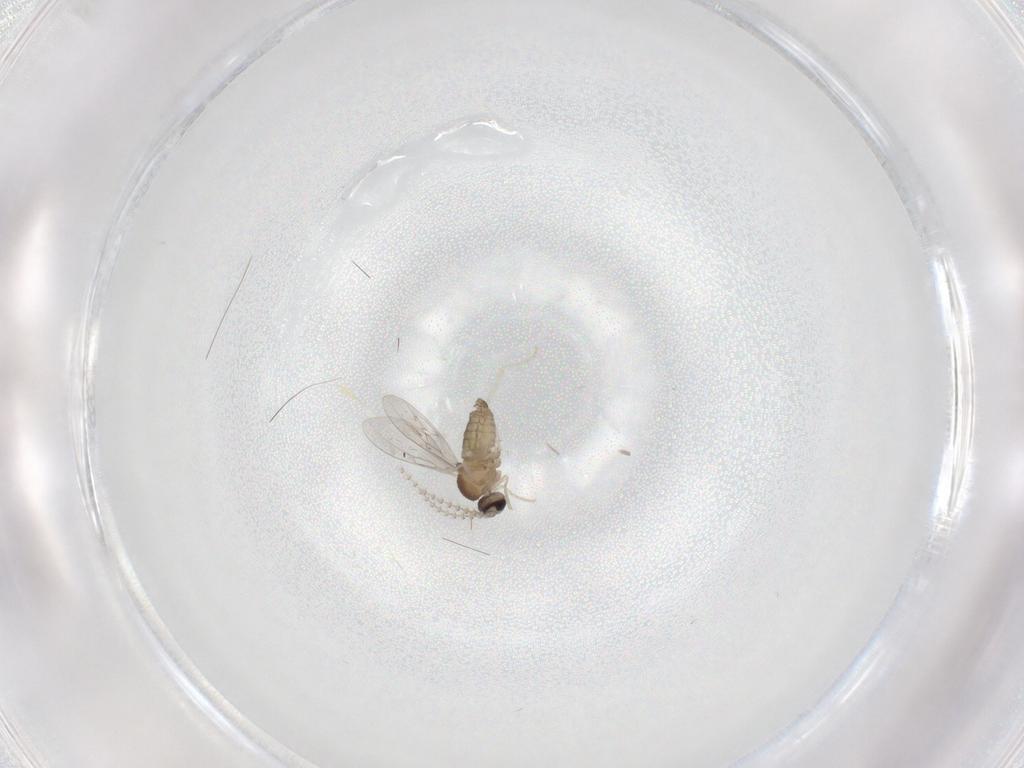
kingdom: Animalia
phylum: Arthropoda
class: Insecta
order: Diptera
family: Cecidomyiidae
